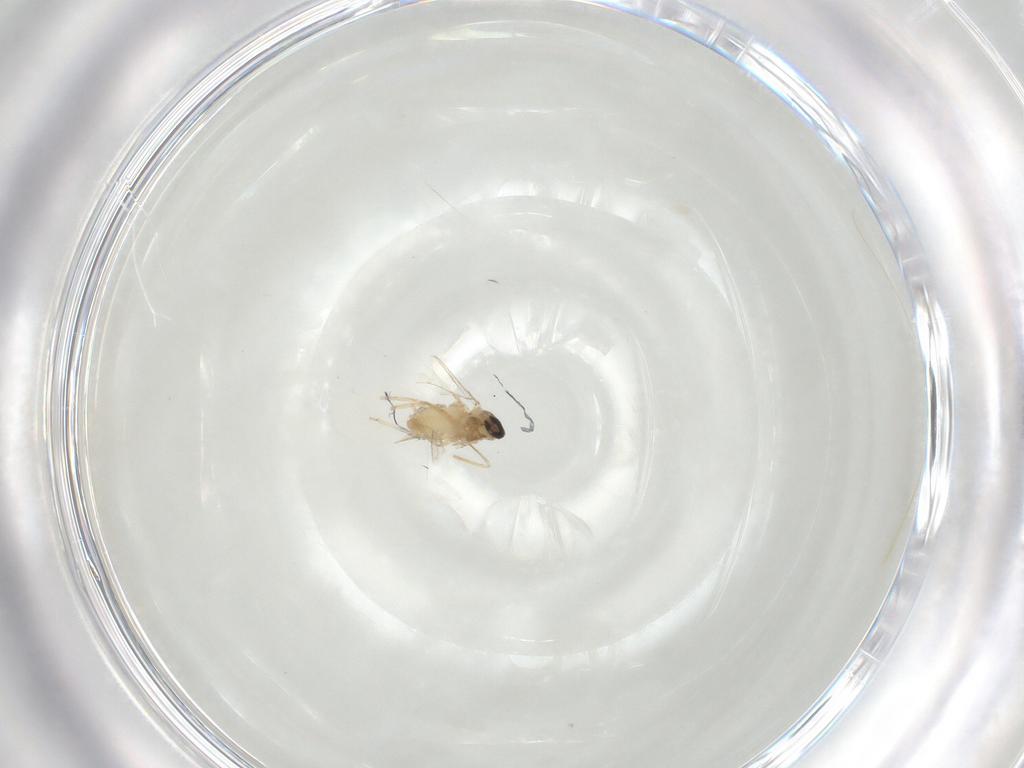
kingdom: Animalia
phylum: Arthropoda
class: Insecta
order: Diptera
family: Cecidomyiidae
